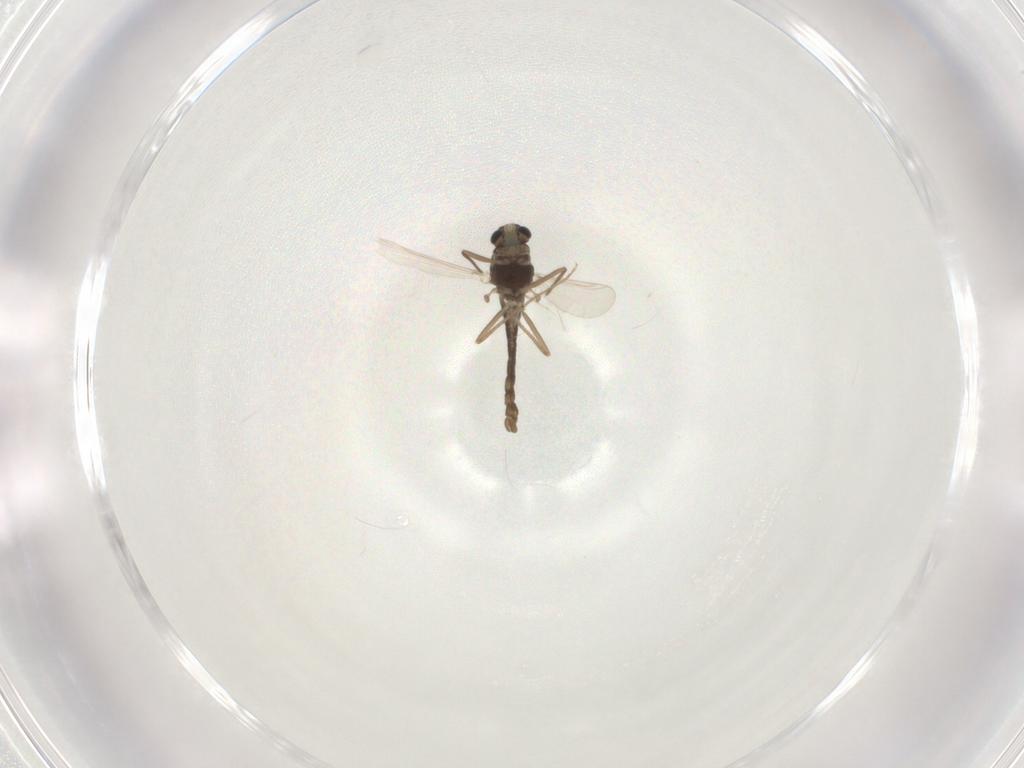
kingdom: Animalia
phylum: Arthropoda
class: Insecta
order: Diptera
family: Chironomidae
